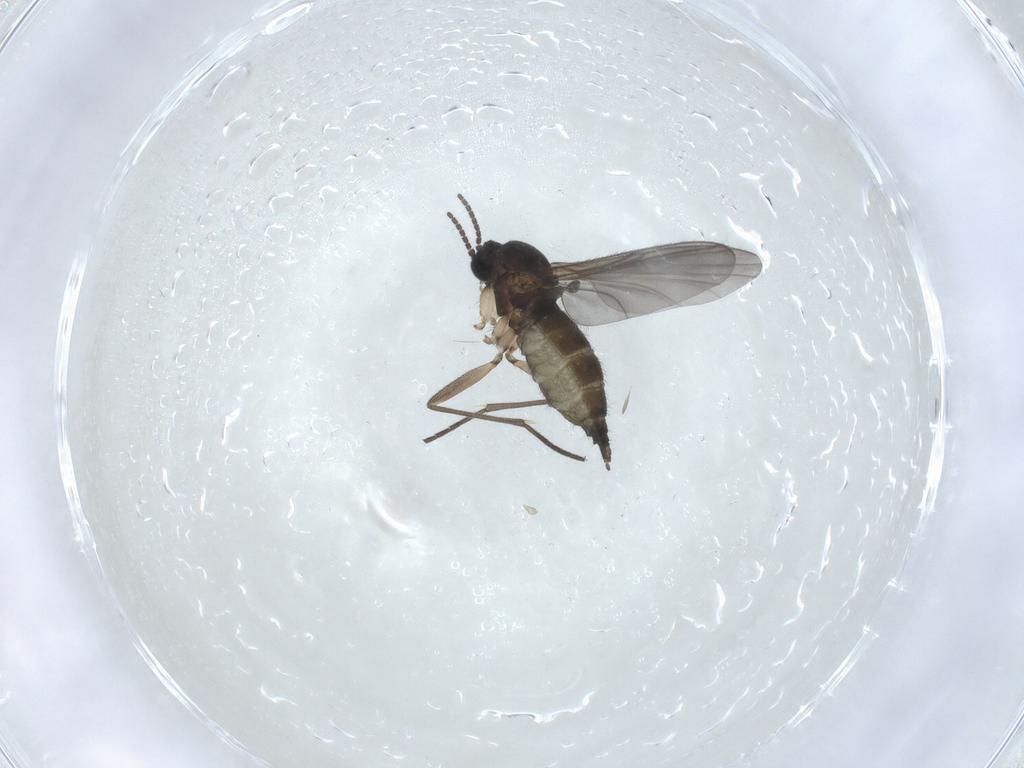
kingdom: Animalia
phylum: Arthropoda
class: Insecta
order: Diptera
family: Sciaridae
